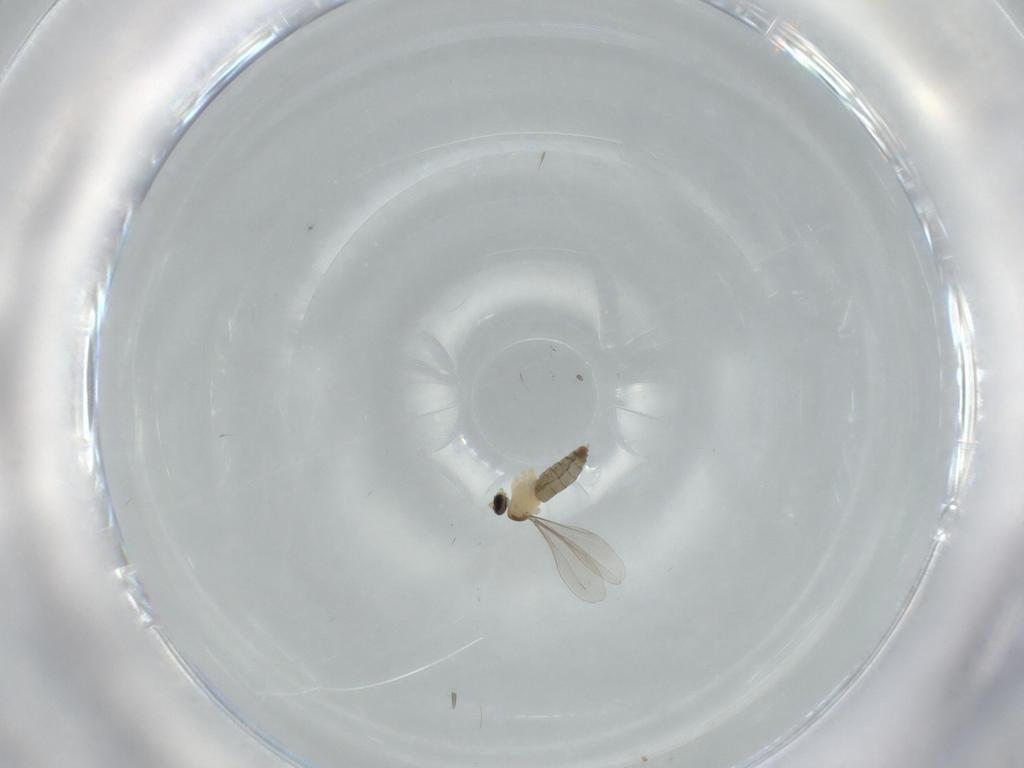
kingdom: Animalia
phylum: Arthropoda
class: Insecta
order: Diptera
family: Cecidomyiidae
